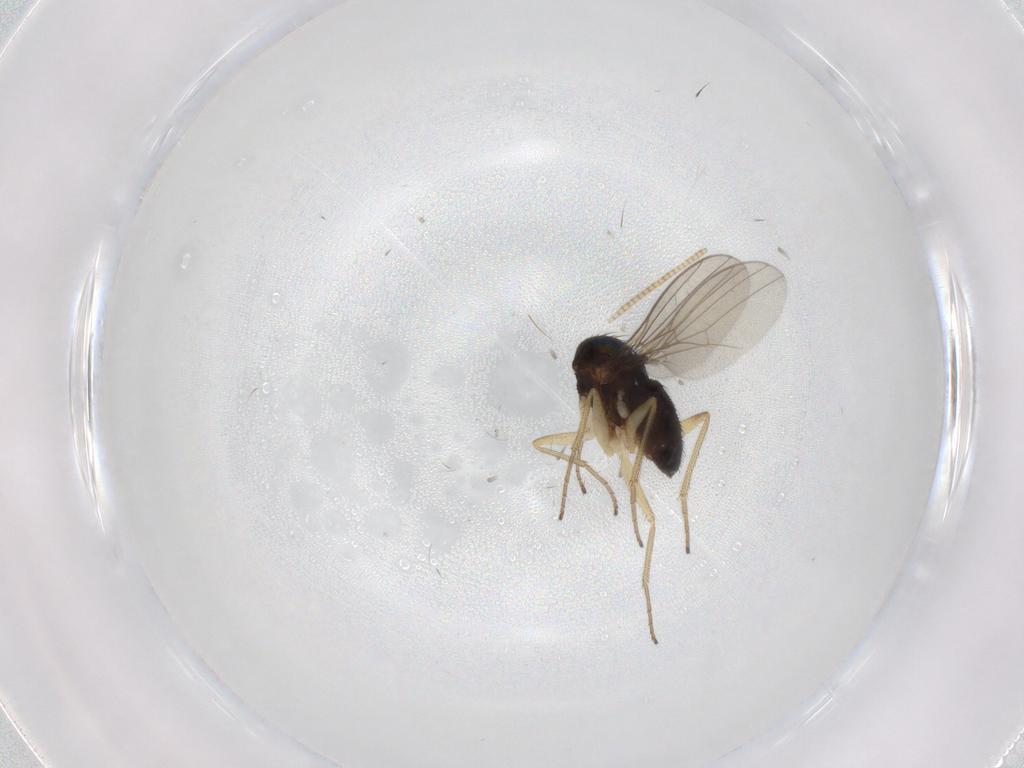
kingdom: Animalia
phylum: Arthropoda
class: Insecta
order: Diptera
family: Dolichopodidae
